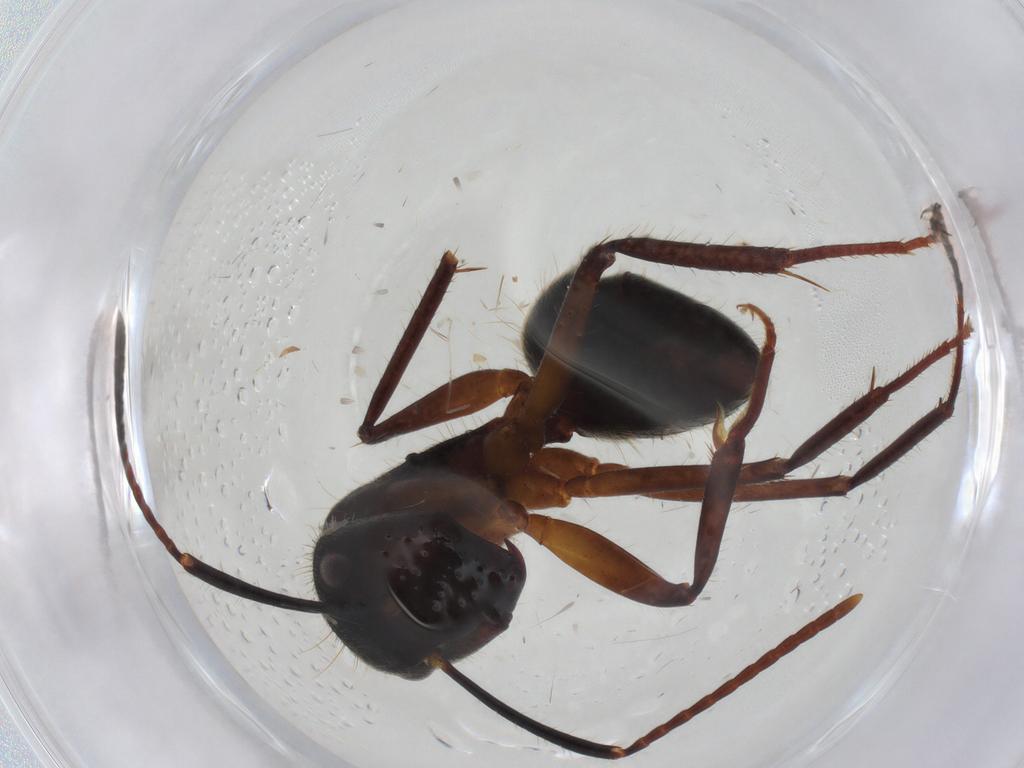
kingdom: Animalia
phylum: Arthropoda
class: Insecta
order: Hymenoptera
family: Formicidae
